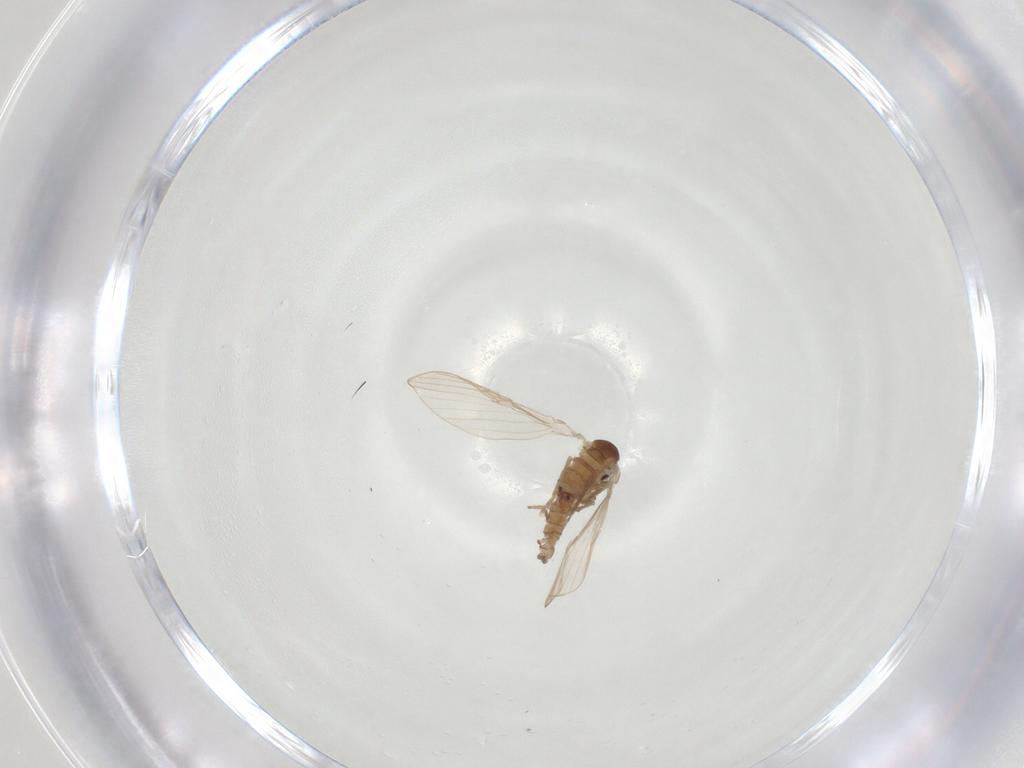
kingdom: Animalia
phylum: Arthropoda
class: Insecta
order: Diptera
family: Psychodidae
